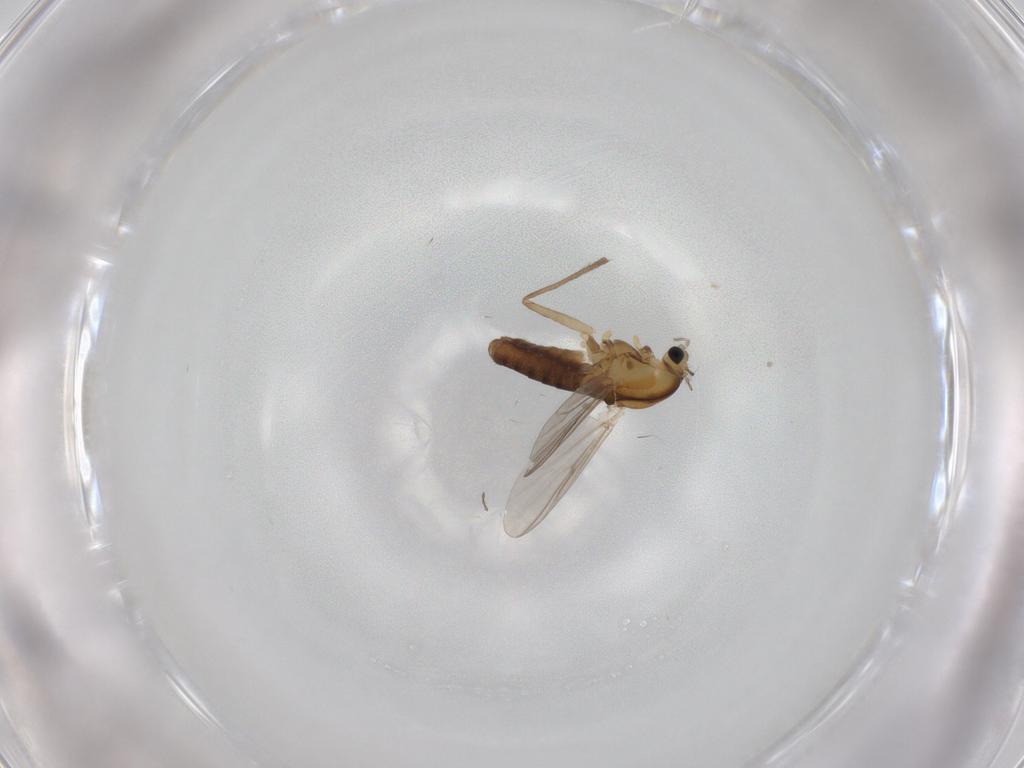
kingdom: Animalia
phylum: Arthropoda
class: Insecta
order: Diptera
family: Chironomidae
